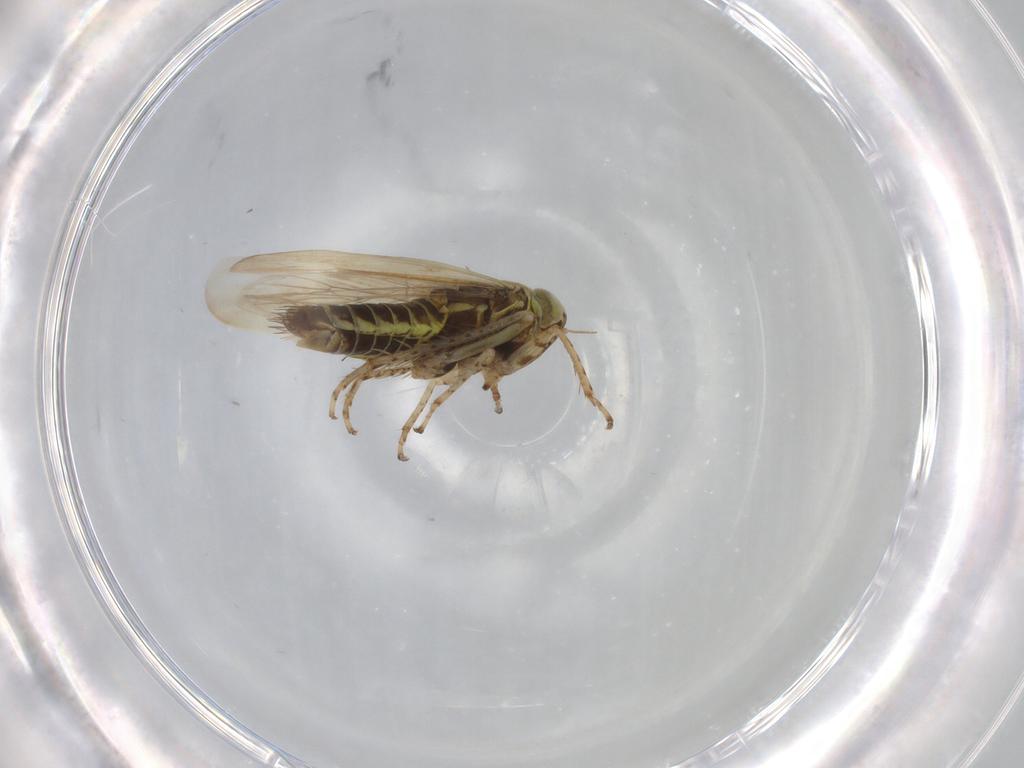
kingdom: Animalia
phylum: Arthropoda
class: Insecta
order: Hemiptera
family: Cicadellidae
